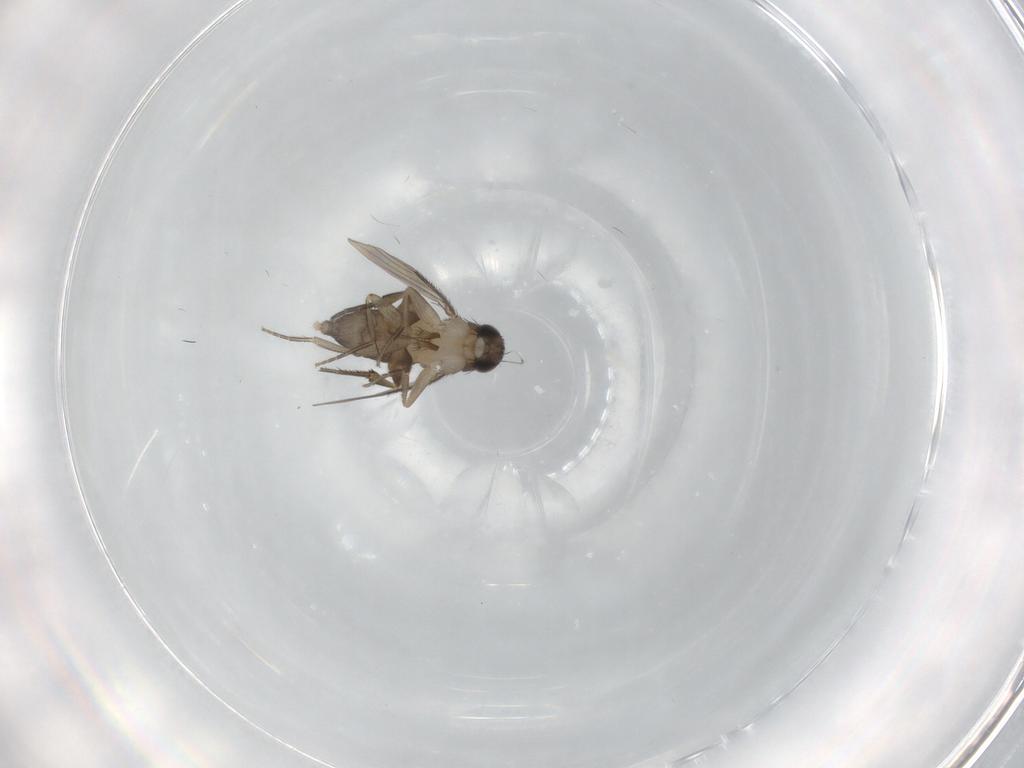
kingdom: Animalia
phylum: Arthropoda
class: Insecta
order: Diptera
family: Phoridae
